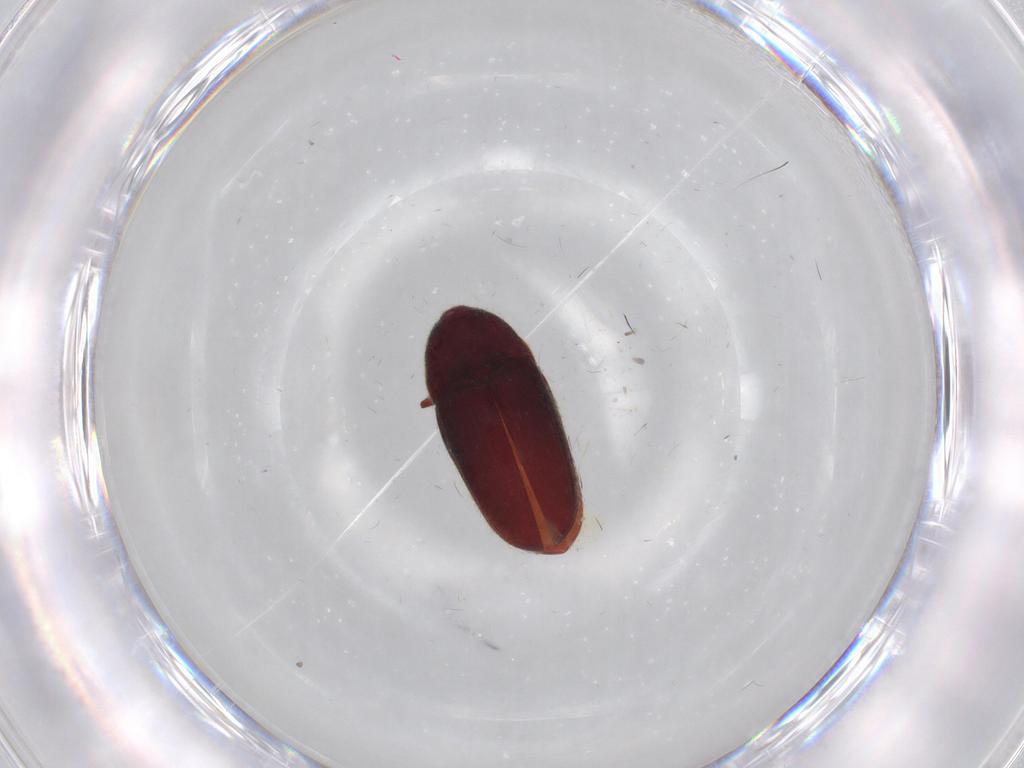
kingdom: Animalia
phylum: Arthropoda
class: Insecta
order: Coleoptera
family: Throscidae
